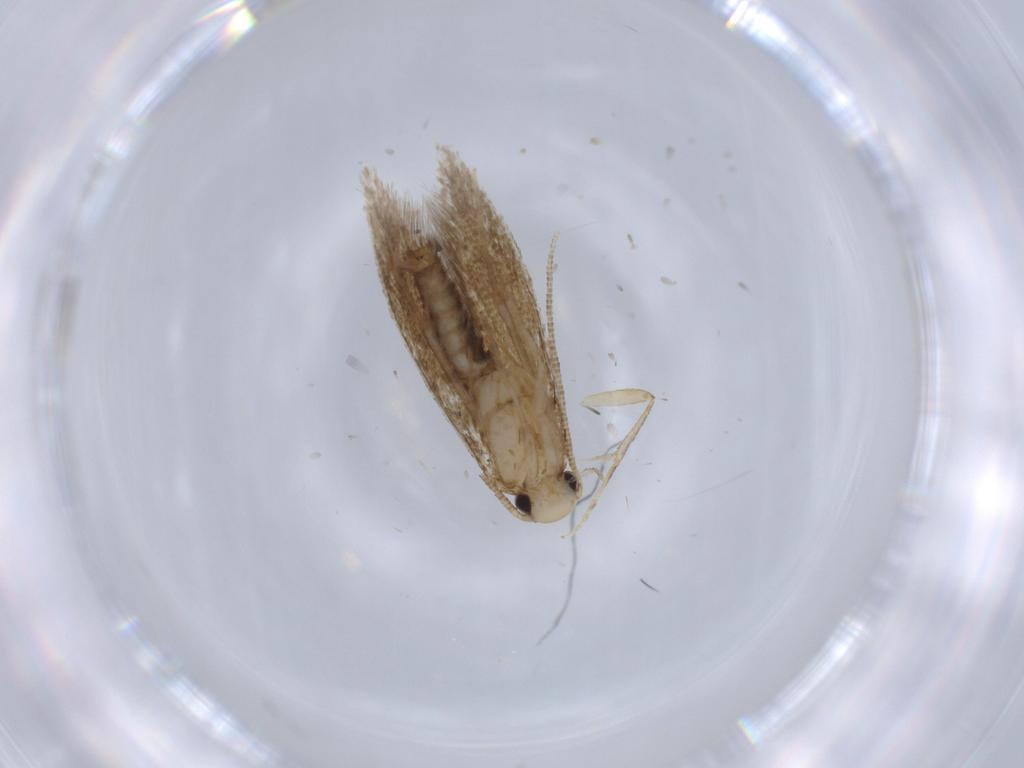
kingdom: Animalia
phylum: Arthropoda
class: Insecta
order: Lepidoptera
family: Tineidae
